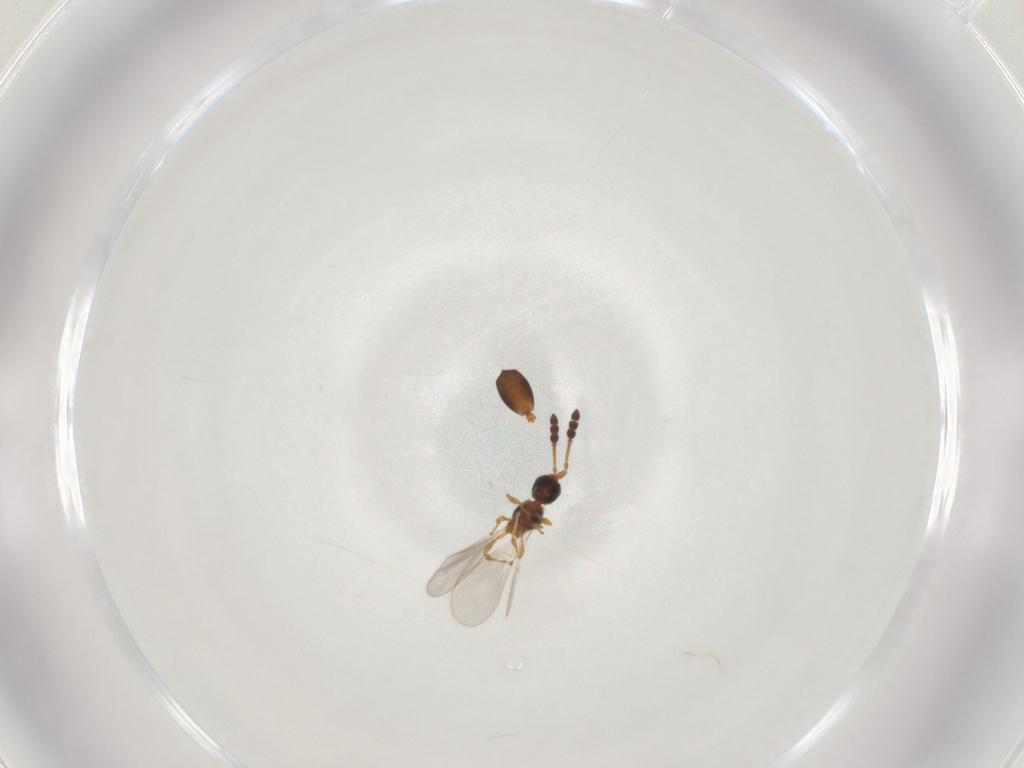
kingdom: Animalia
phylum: Arthropoda
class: Insecta
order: Hymenoptera
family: Diapriidae
